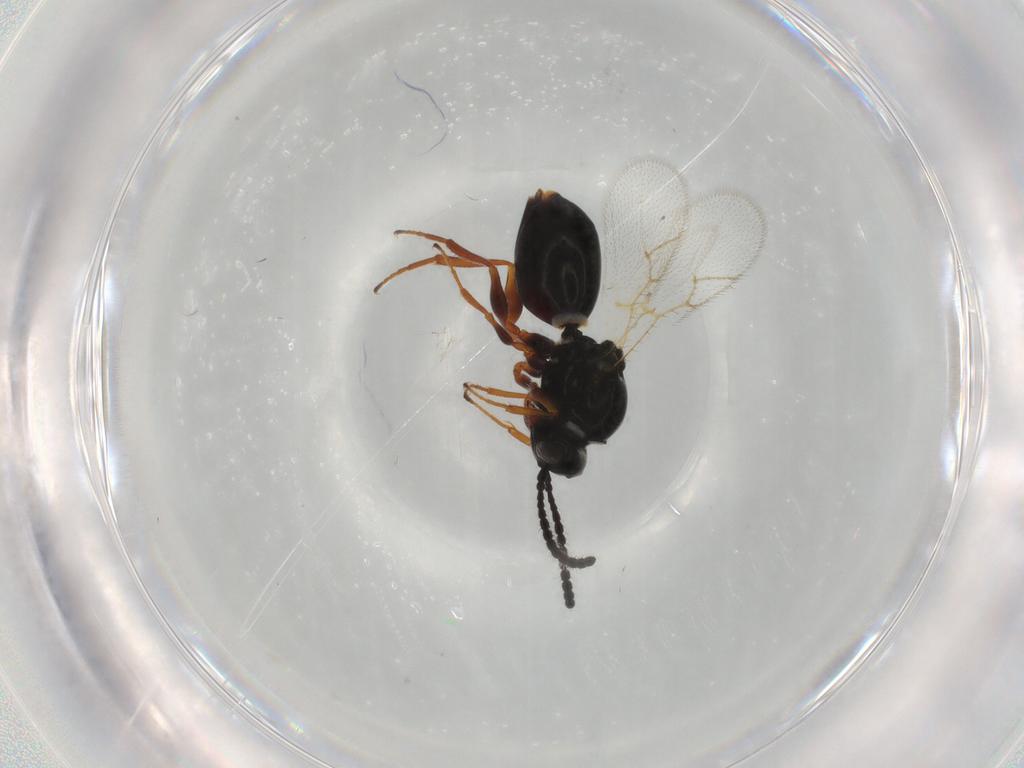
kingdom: Animalia
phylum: Arthropoda
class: Insecta
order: Hymenoptera
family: Figitidae
